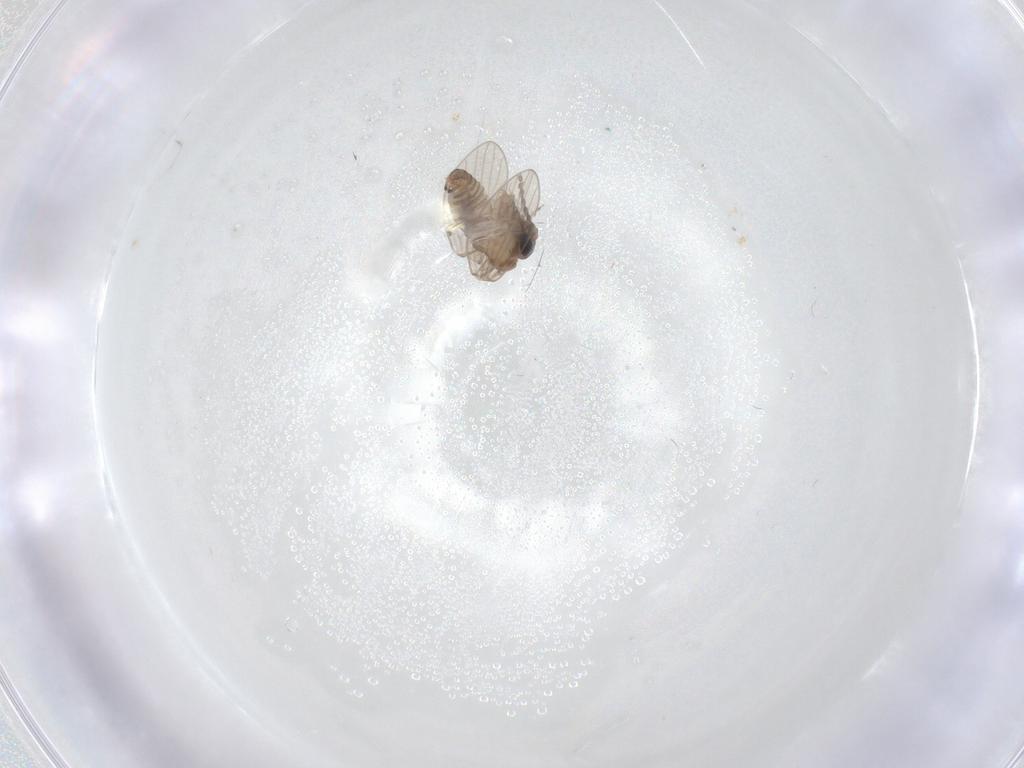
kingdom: Animalia
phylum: Arthropoda
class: Insecta
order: Diptera
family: Psychodidae
